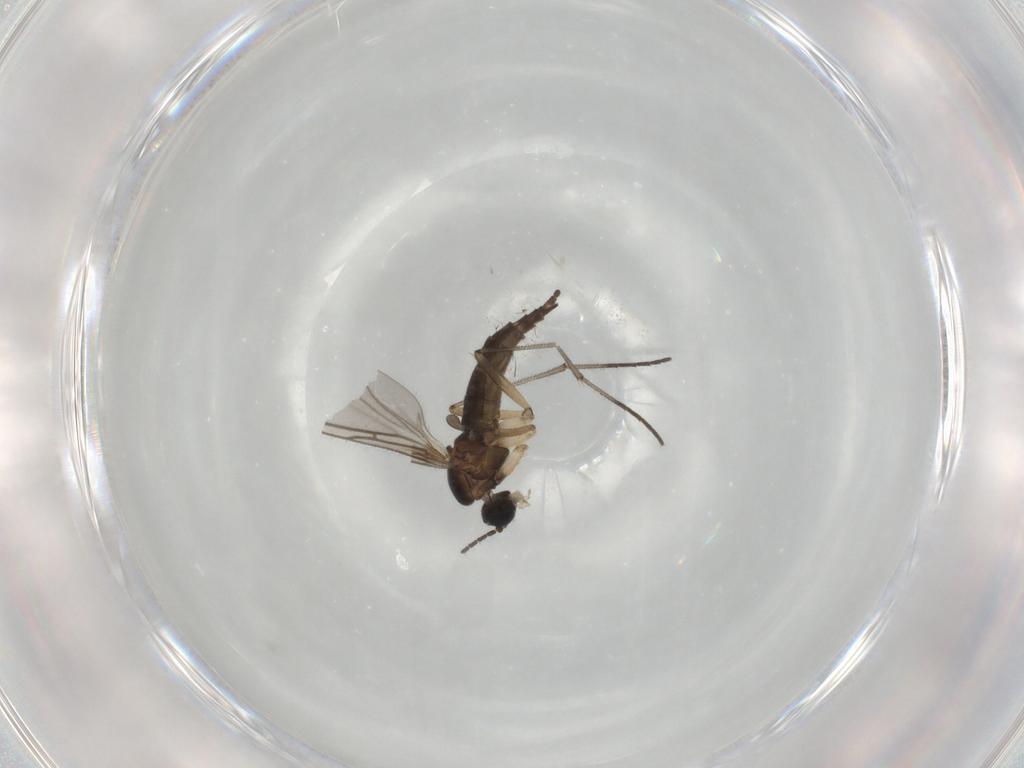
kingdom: Animalia
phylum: Arthropoda
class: Insecta
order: Diptera
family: Sciaridae
